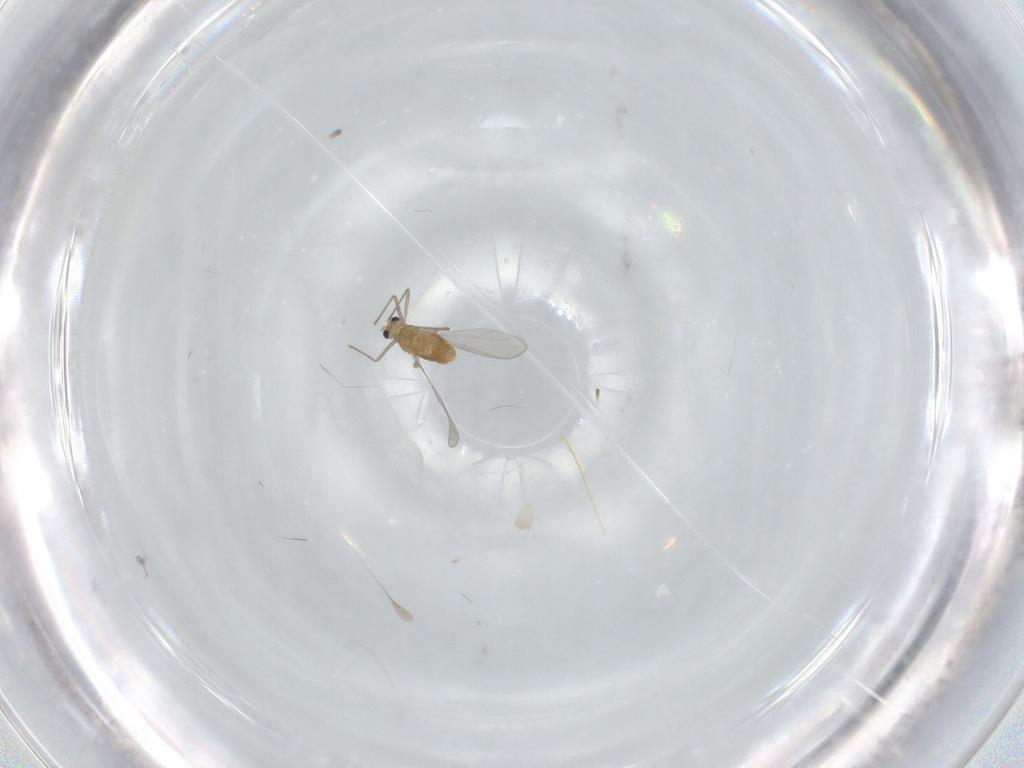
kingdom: Animalia
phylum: Arthropoda
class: Insecta
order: Diptera
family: Chironomidae
